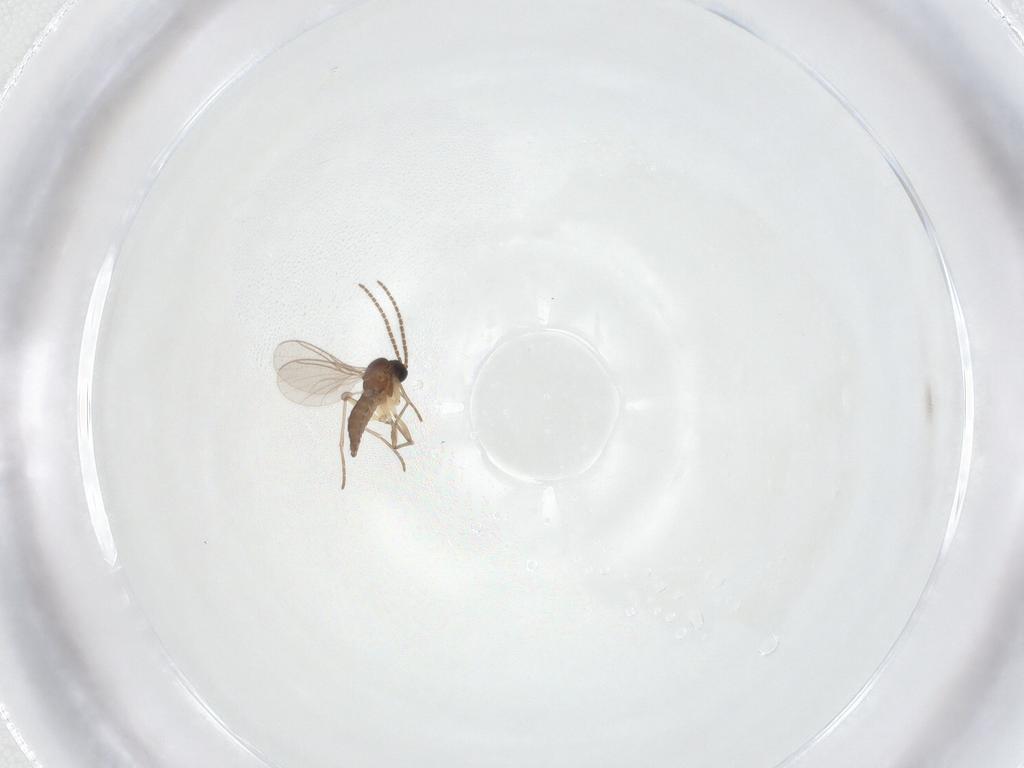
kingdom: Animalia
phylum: Arthropoda
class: Insecta
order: Diptera
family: Sciaridae
